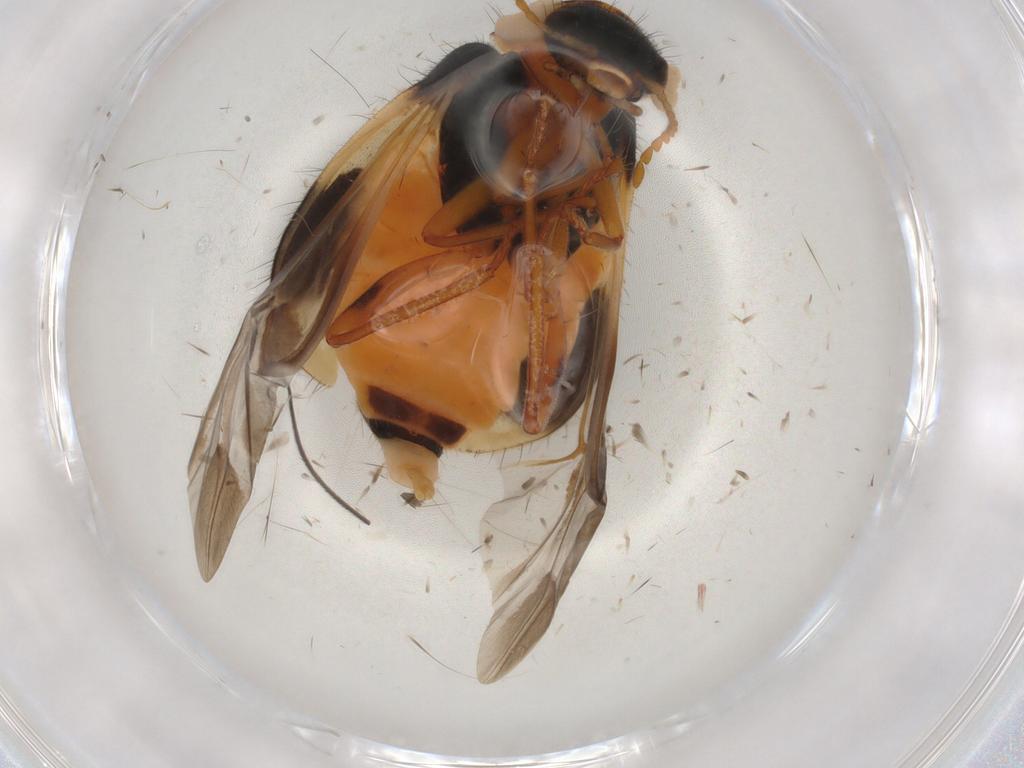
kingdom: Animalia
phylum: Arthropoda
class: Insecta
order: Coleoptera
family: Melyridae
